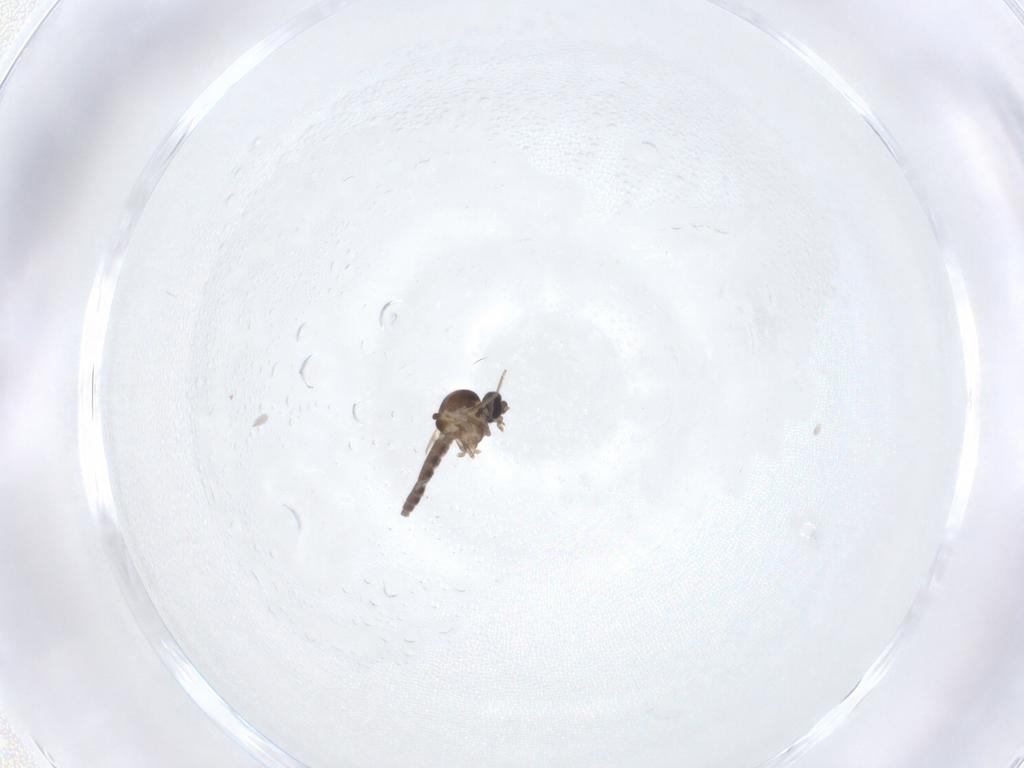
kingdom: Animalia
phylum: Arthropoda
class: Insecta
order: Diptera
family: Ceratopogonidae
